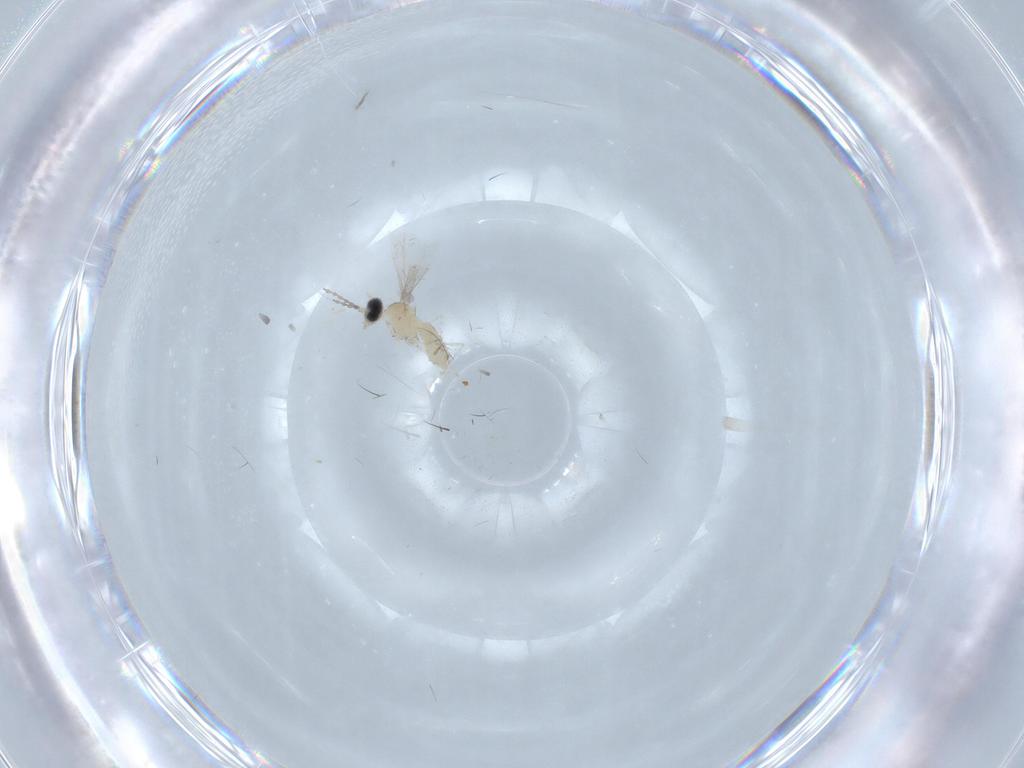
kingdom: Animalia
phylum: Arthropoda
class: Insecta
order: Diptera
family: Cecidomyiidae
